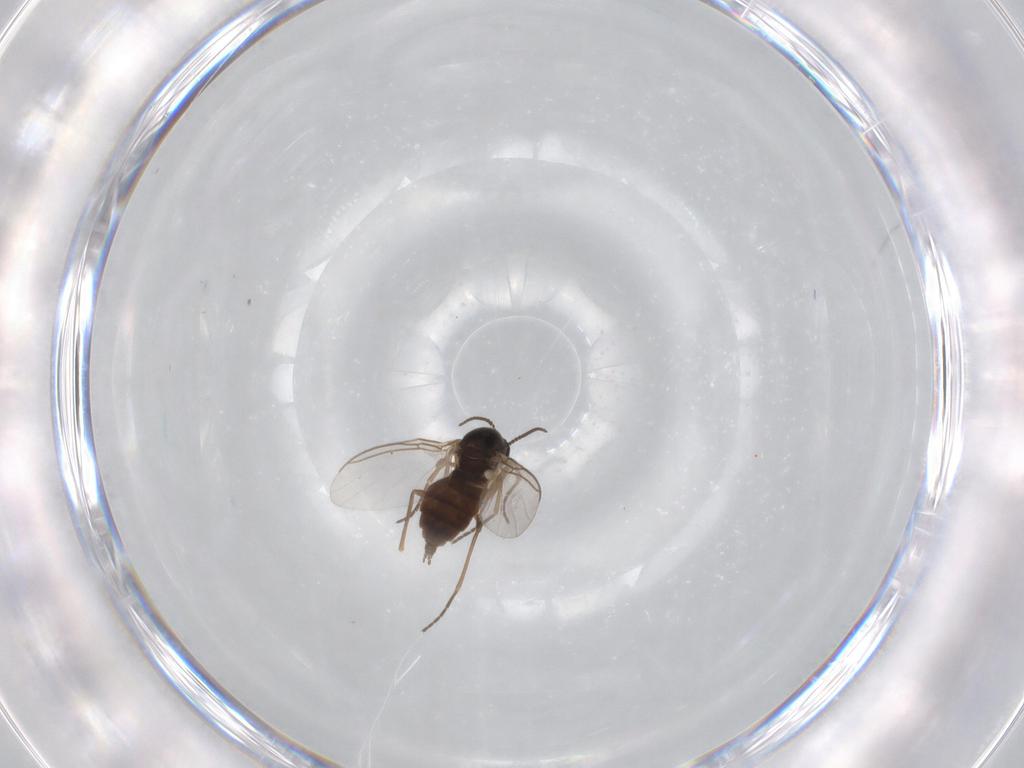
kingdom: Animalia
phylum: Arthropoda
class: Insecta
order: Diptera
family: Sciaridae
